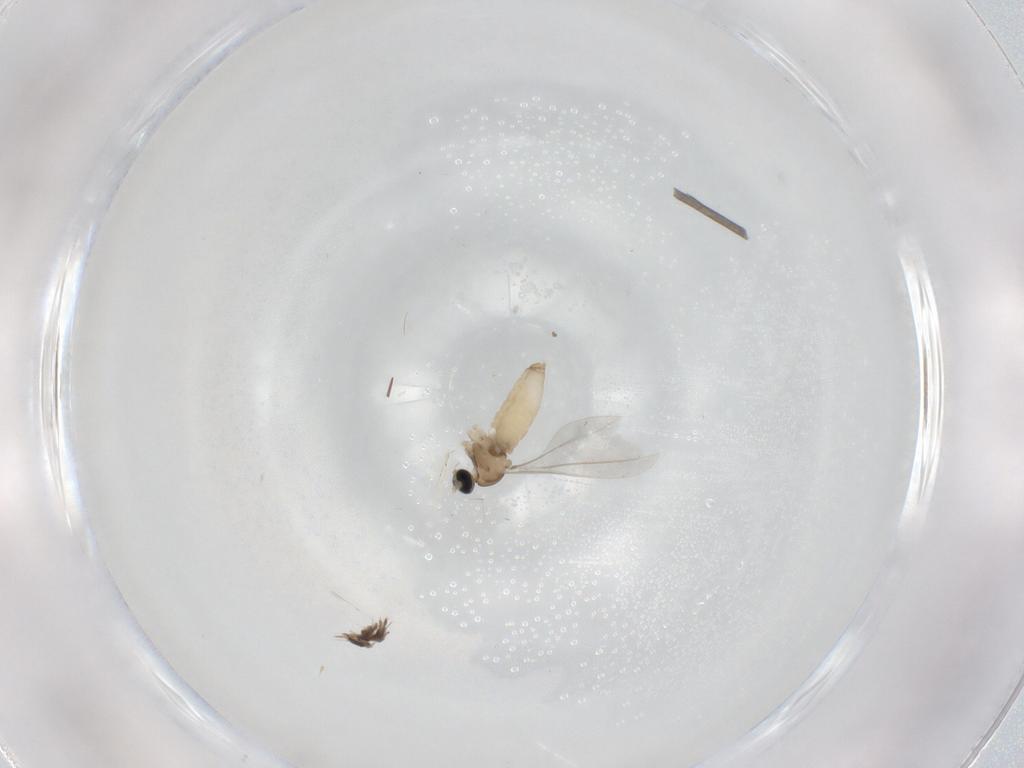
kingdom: Animalia
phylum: Arthropoda
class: Insecta
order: Diptera
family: Cecidomyiidae
